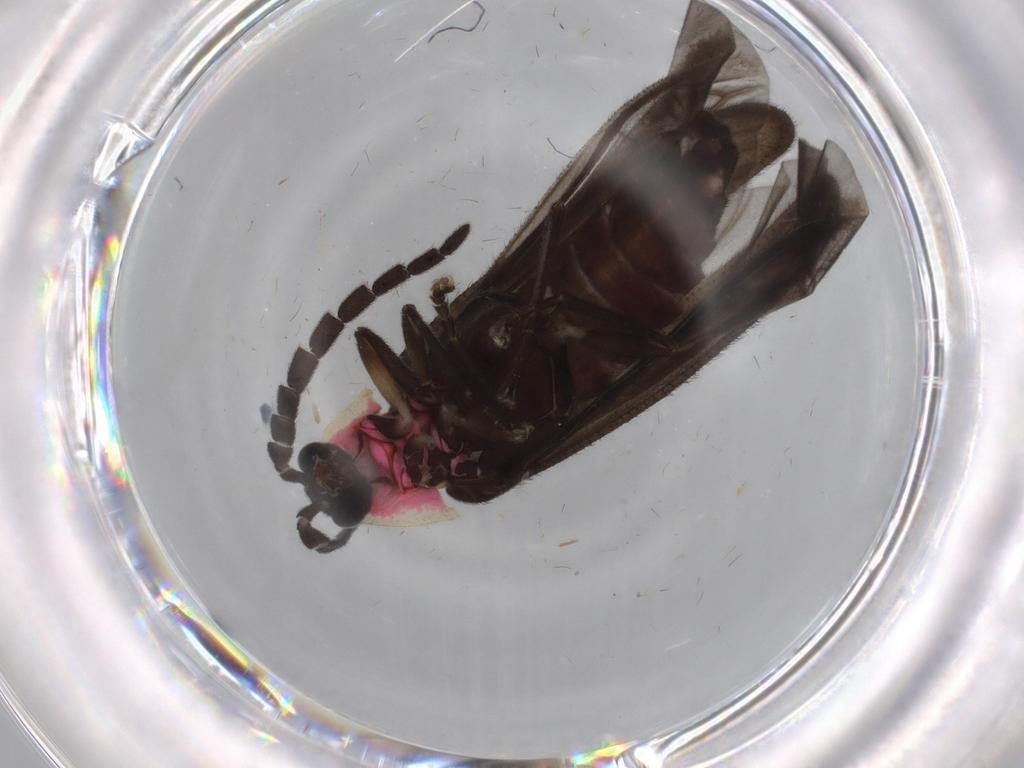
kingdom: Animalia
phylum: Arthropoda
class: Insecta
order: Coleoptera
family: Lampyridae
